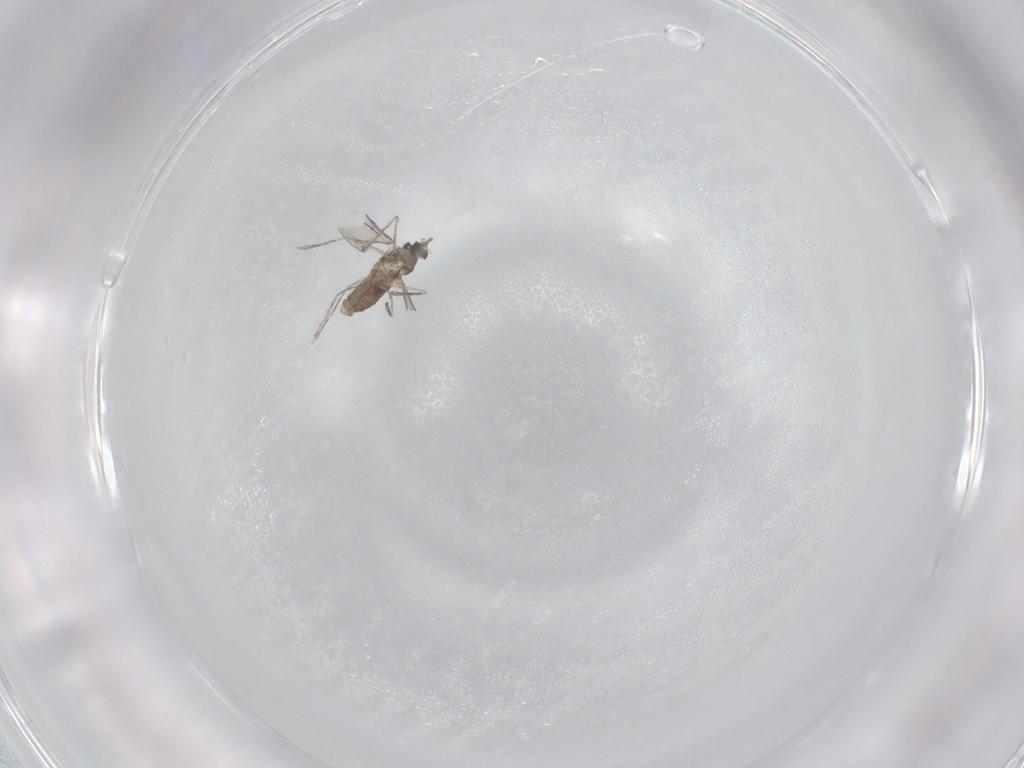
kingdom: Animalia
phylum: Arthropoda
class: Insecta
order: Diptera
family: Cecidomyiidae
